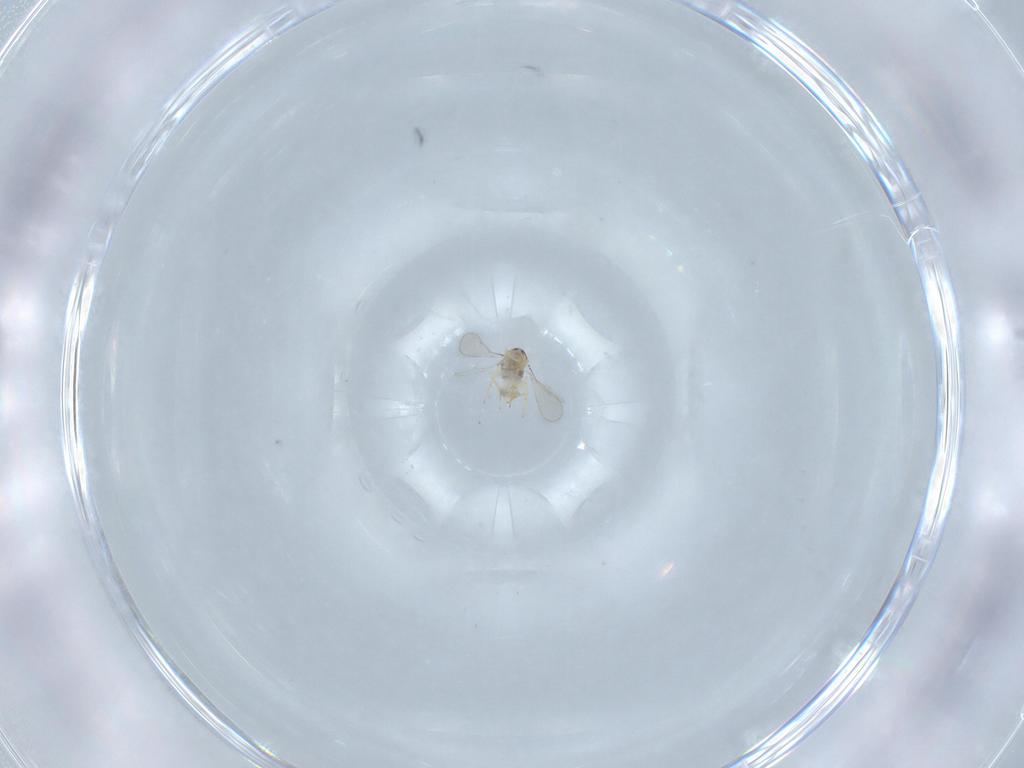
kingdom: Animalia
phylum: Arthropoda
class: Insecta
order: Hymenoptera
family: Aphelinidae
